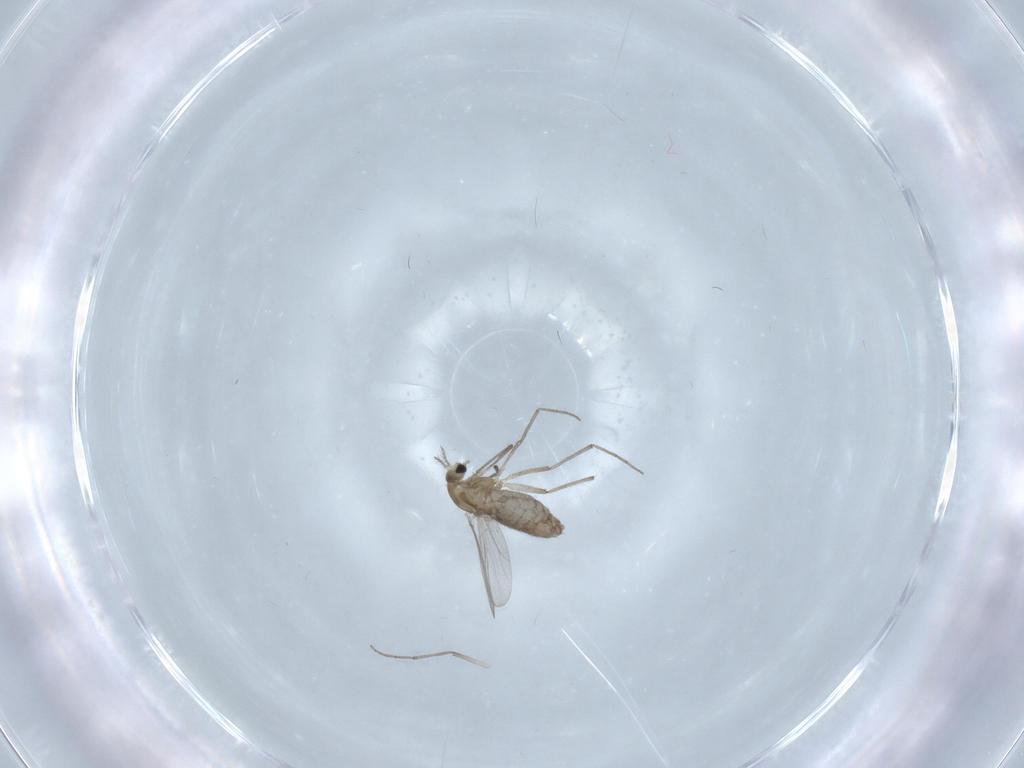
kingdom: Animalia
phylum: Arthropoda
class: Insecta
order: Diptera
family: Chironomidae
